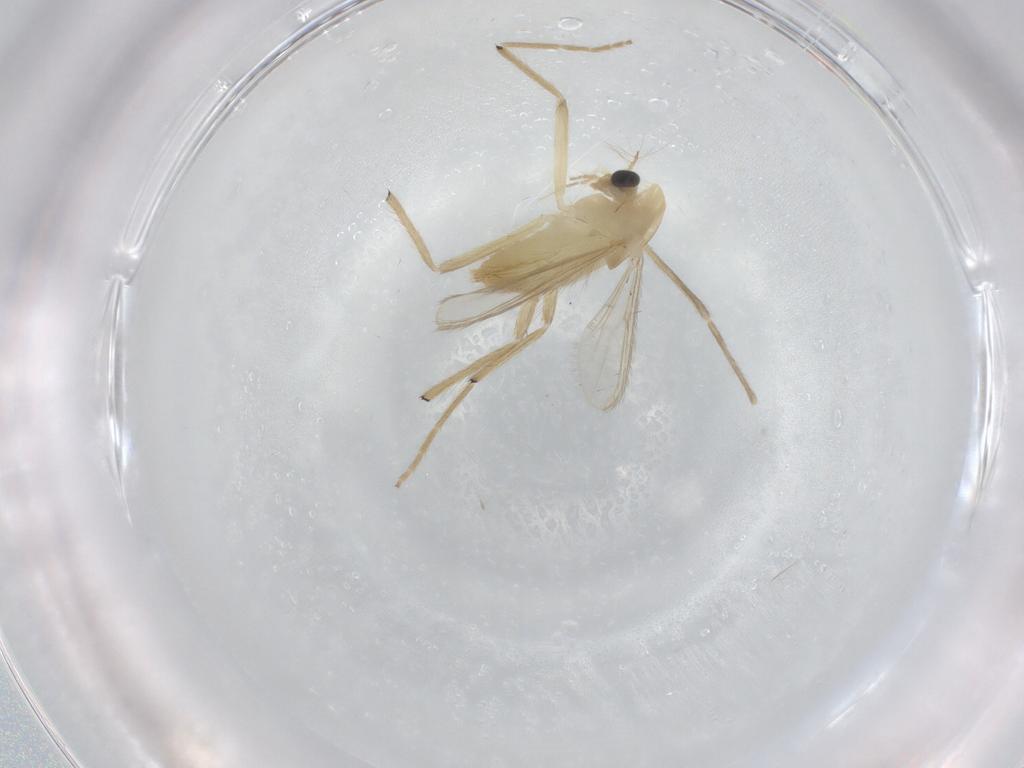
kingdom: Animalia
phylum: Arthropoda
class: Insecta
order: Diptera
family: Chironomidae
